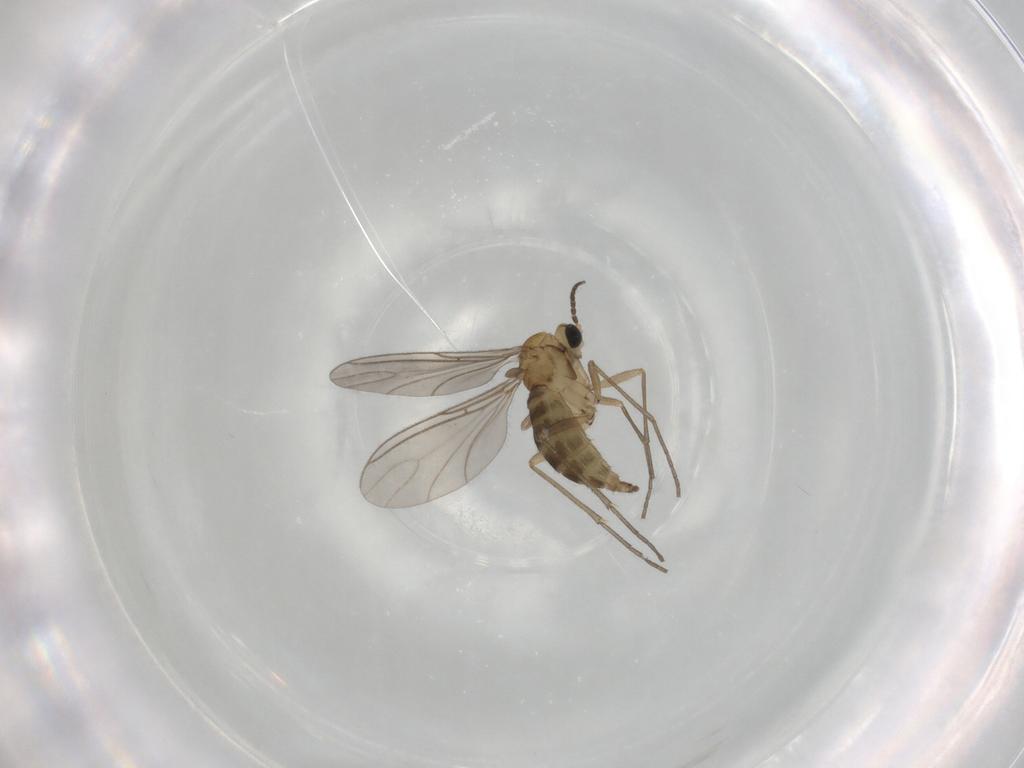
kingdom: Animalia
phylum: Arthropoda
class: Insecta
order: Diptera
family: Sciaridae
